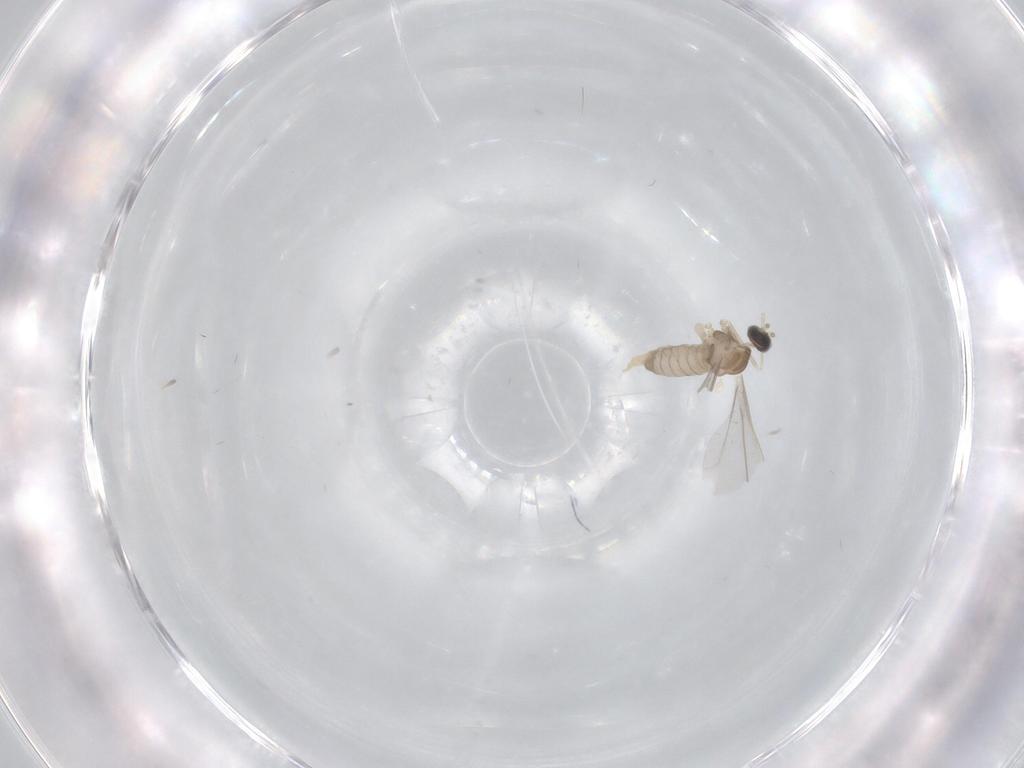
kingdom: Animalia
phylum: Arthropoda
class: Insecta
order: Diptera
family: Cecidomyiidae
